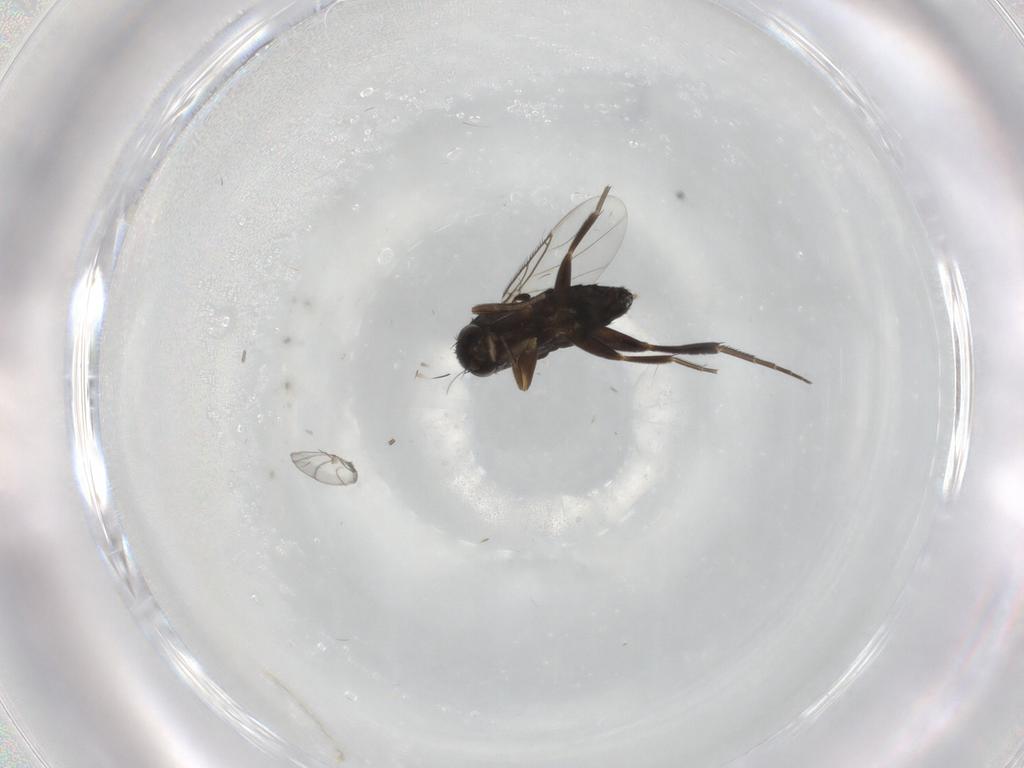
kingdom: Animalia
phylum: Arthropoda
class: Insecta
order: Diptera
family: Phoridae
